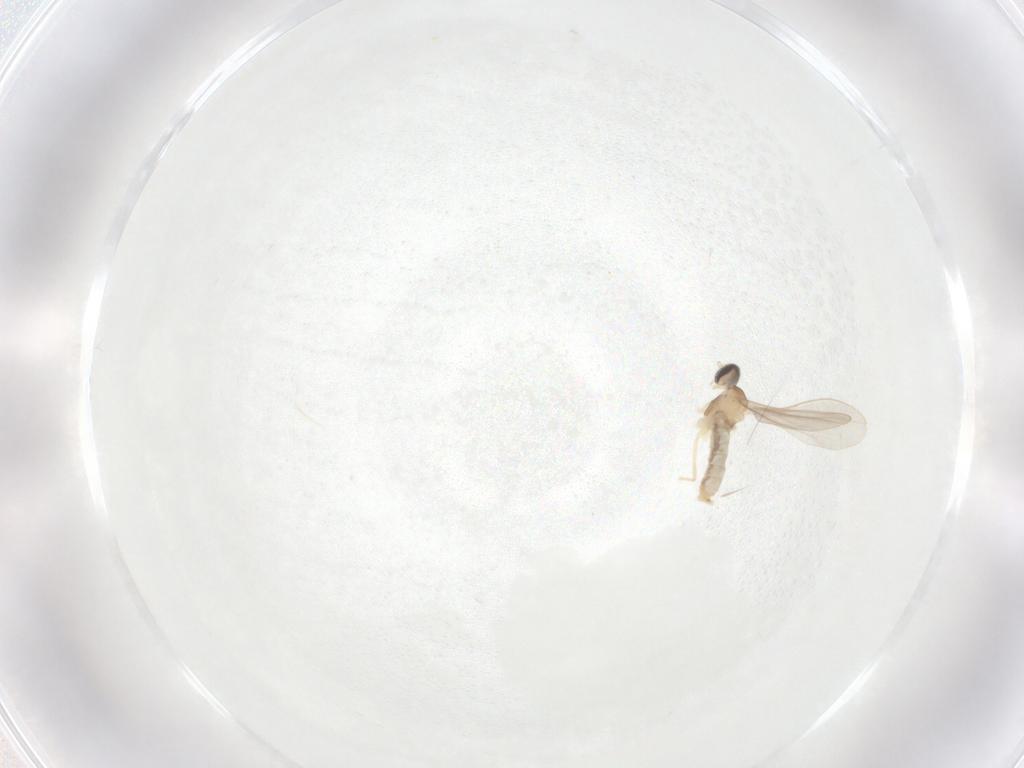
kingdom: Animalia
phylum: Arthropoda
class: Insecta
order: Diptera
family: Cecidomyiidae
